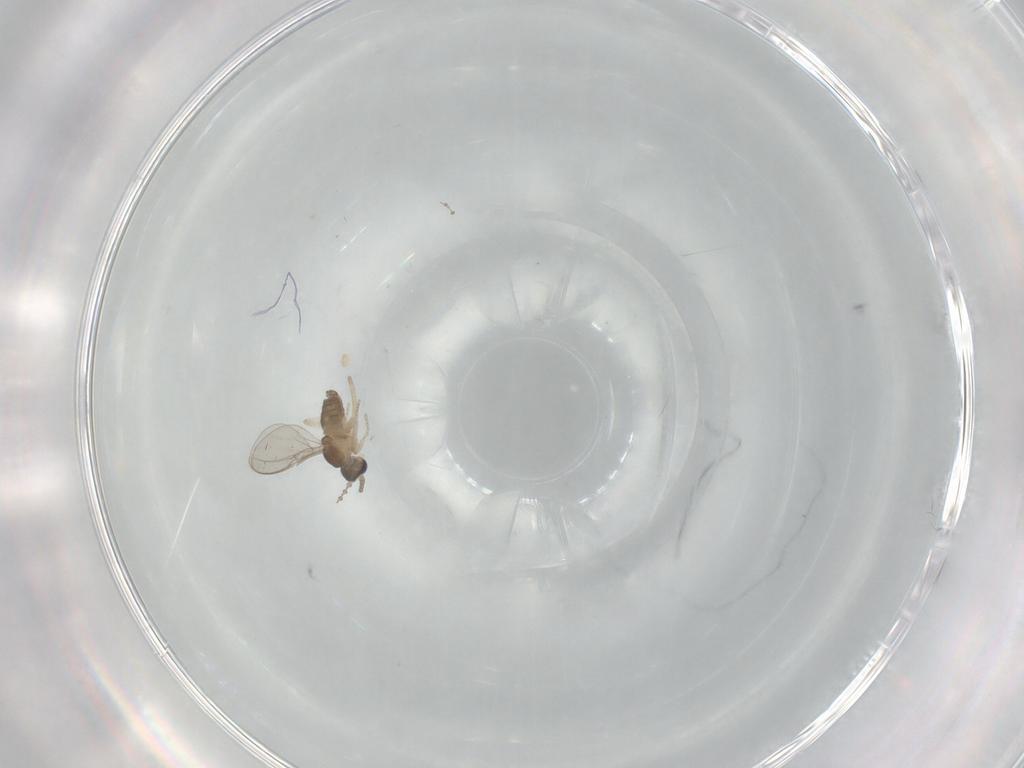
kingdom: Animalia
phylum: Arthropoda
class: Insecta
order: Diptera
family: Cecidomyiidae
